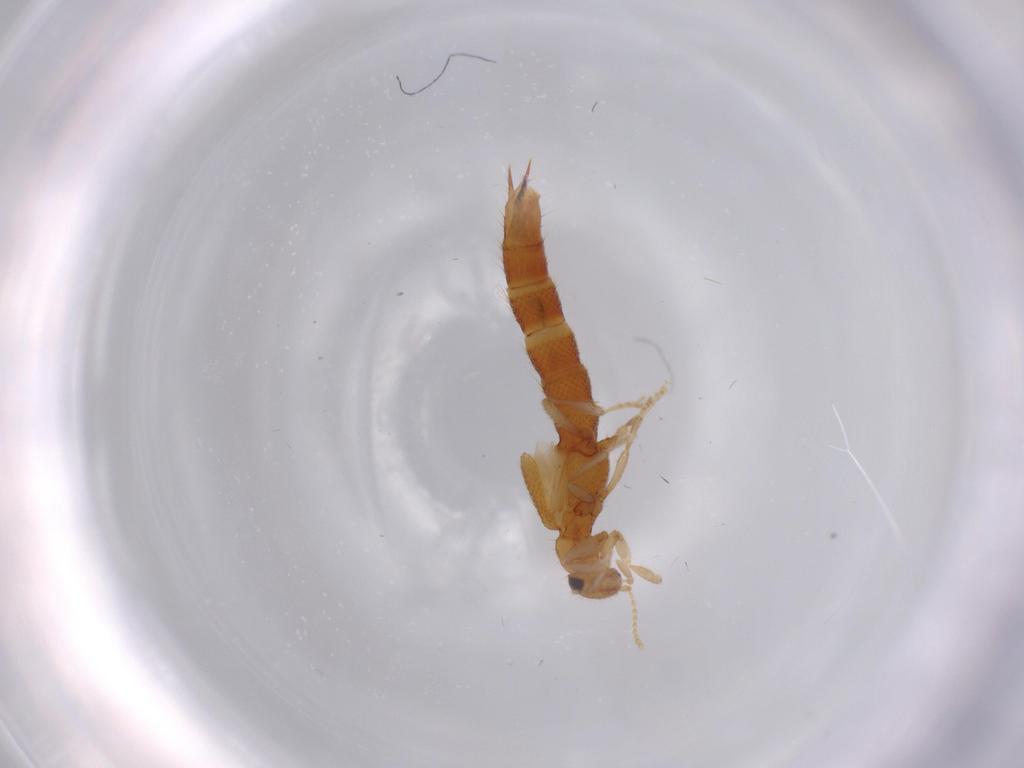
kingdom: Animalia
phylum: Arthropoda
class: Insecta
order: Coleoptera
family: Staphylinidae
